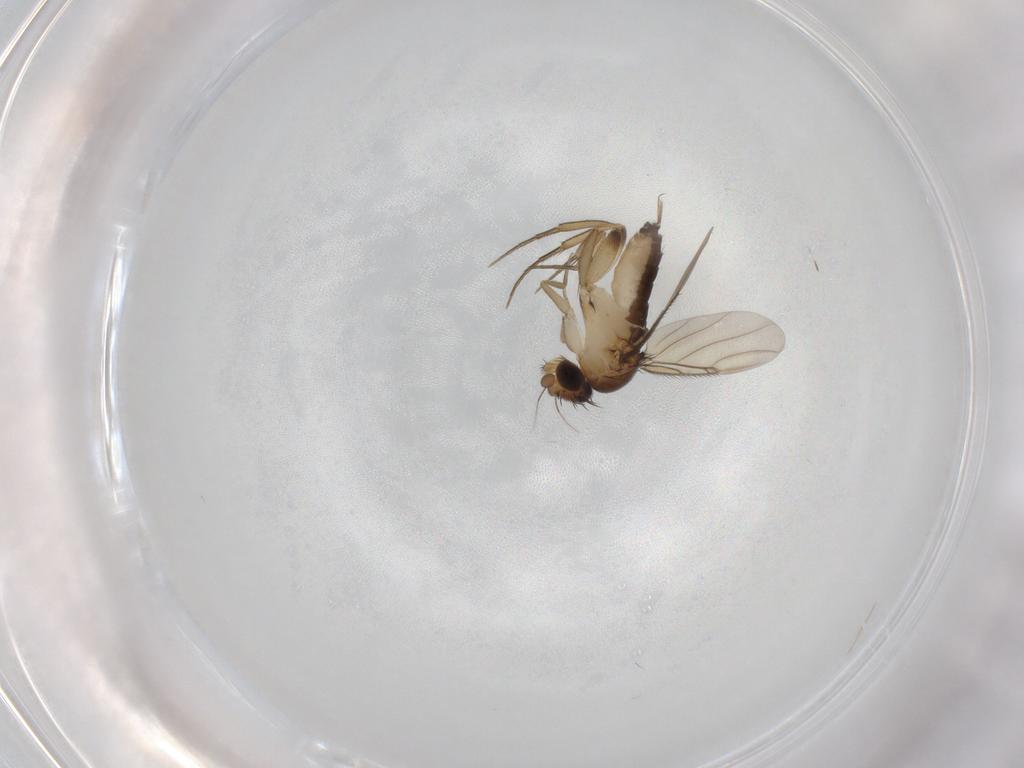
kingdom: Animalia
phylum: Arthropoda
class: Insecta
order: Diptera
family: Phoridae
